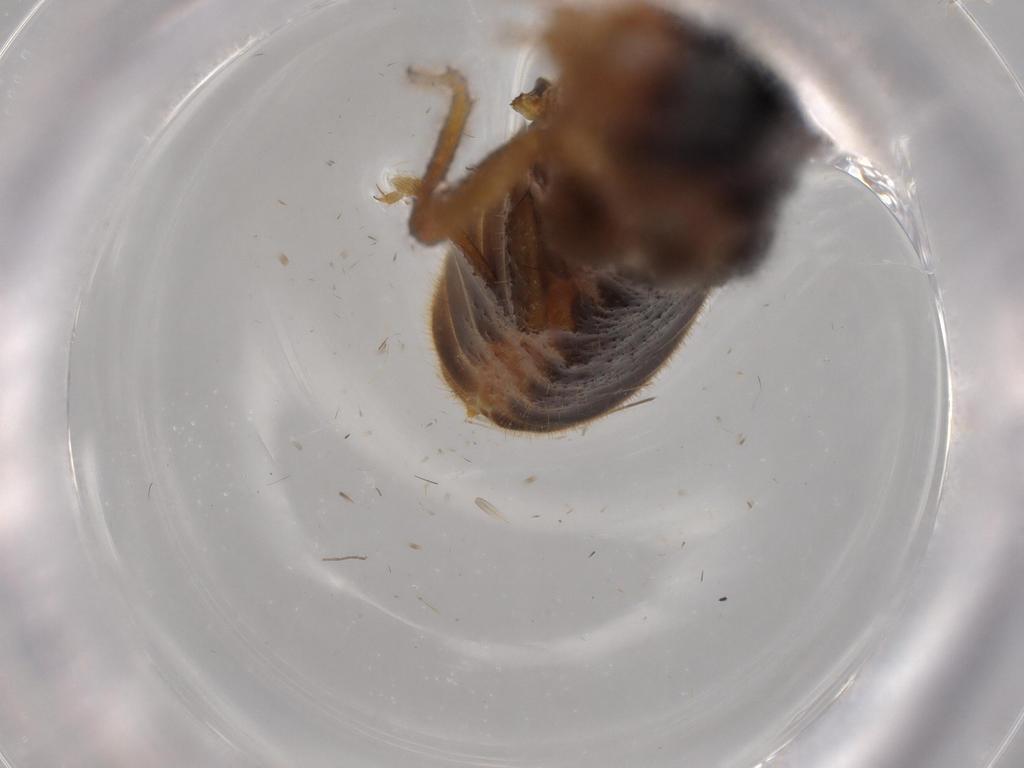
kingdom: Animalia
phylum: Arthropoda
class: Insecta
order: Blattodea
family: Termitidae
